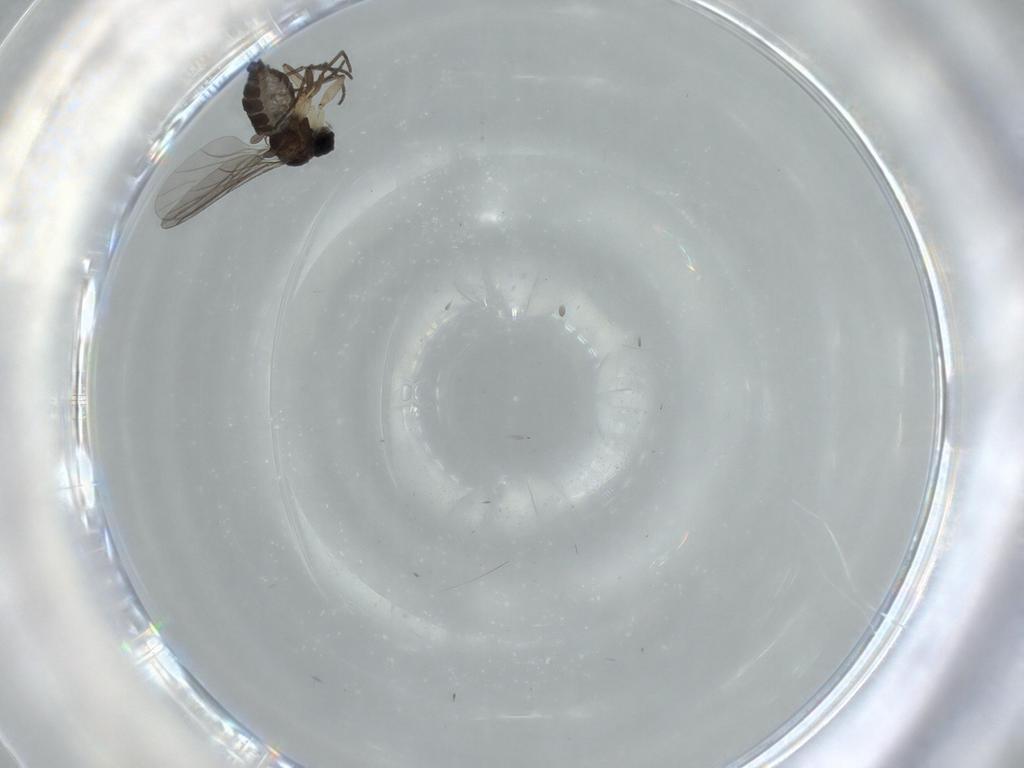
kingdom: Animalia
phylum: Arthropoda
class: Insecta
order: Diptera
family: Sciaridae
